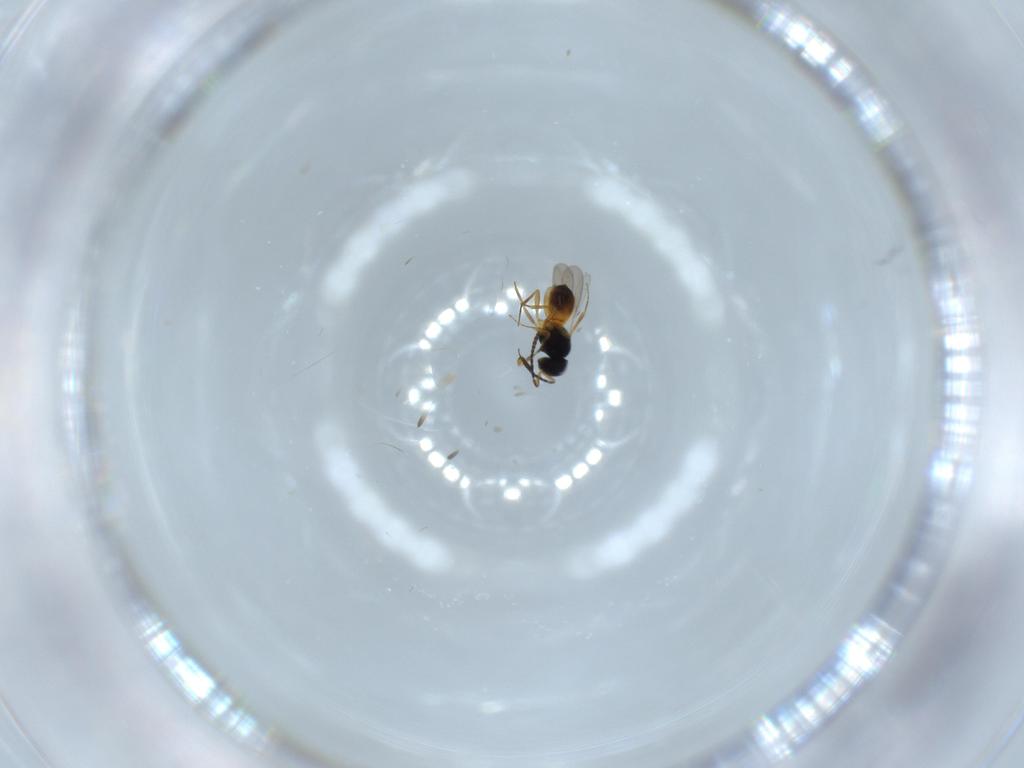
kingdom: Animalia
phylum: Arthropoda
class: Insecta
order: Hymenoptera
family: Scelionidae
